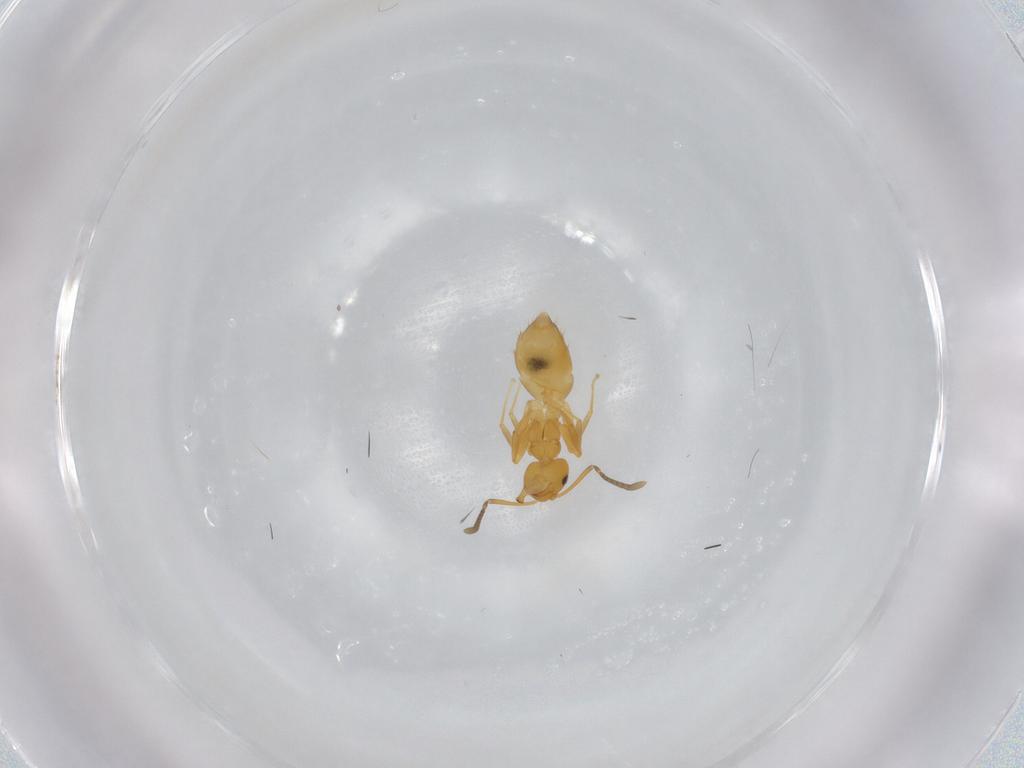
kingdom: Animalia
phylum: Arthropoda
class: Insecta
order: Hymenoptera
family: Formicidae
